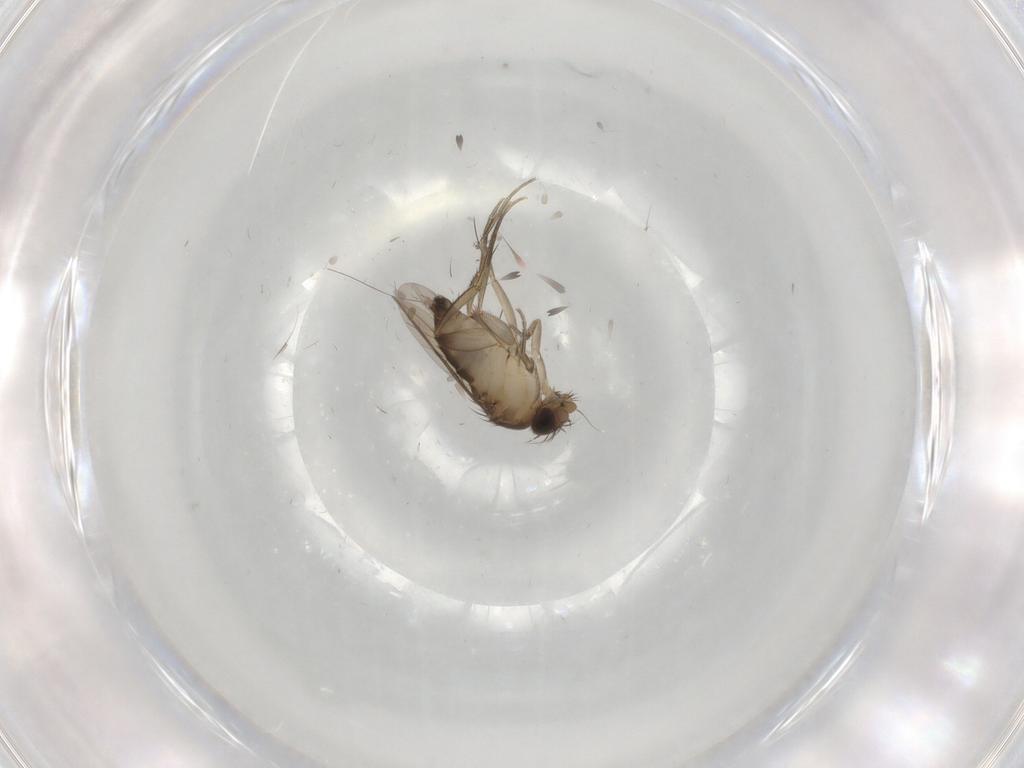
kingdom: Animalia
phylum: Arthropoda
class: Insecta
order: Diptera
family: Phoridae
